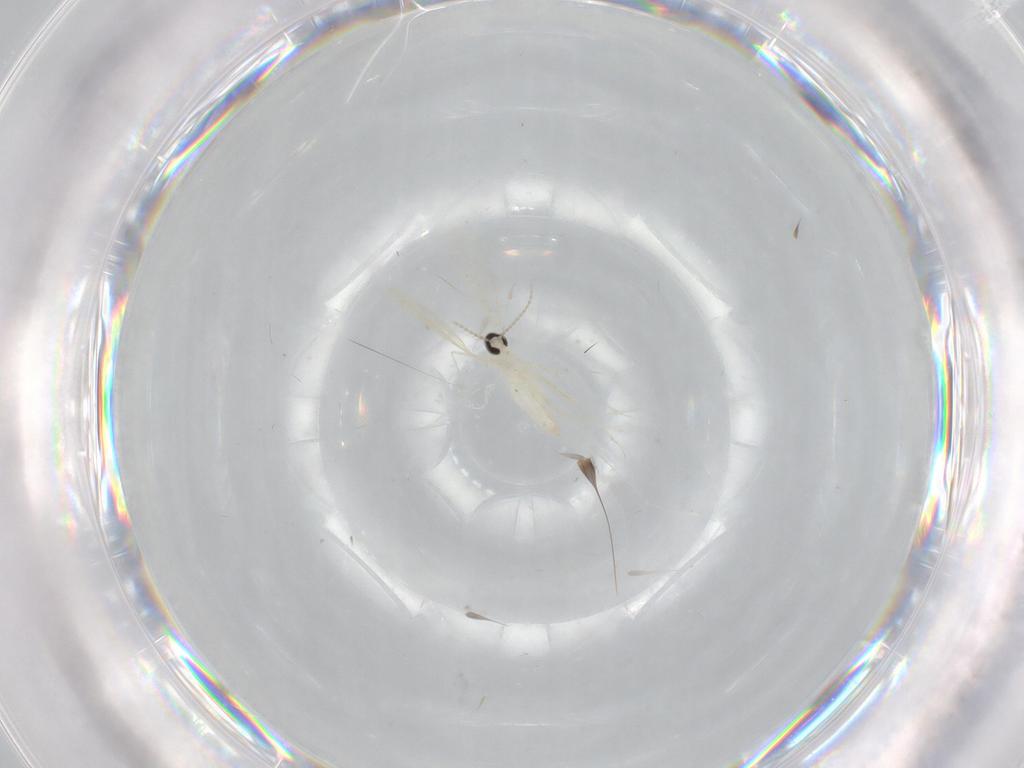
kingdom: Animalia
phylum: Arthropoda
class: Insecta
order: Diptera
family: Cecidomyiidae
